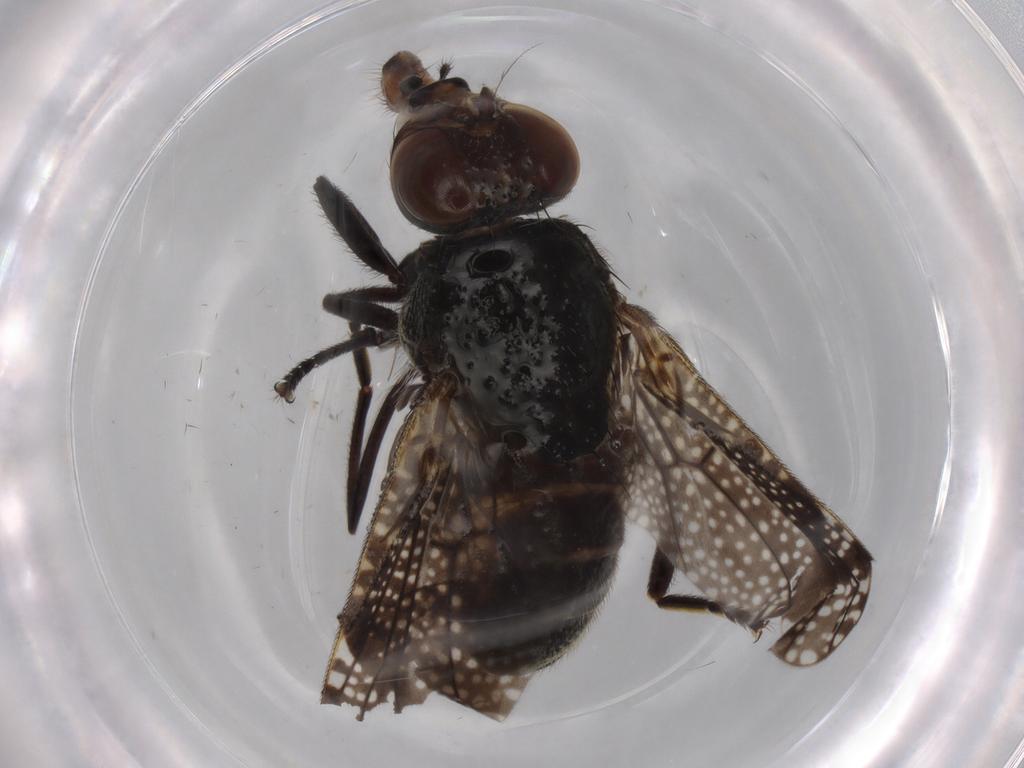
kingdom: Animalia
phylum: Arthropoda
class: Insecta
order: Diptera
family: Platystomatidae
